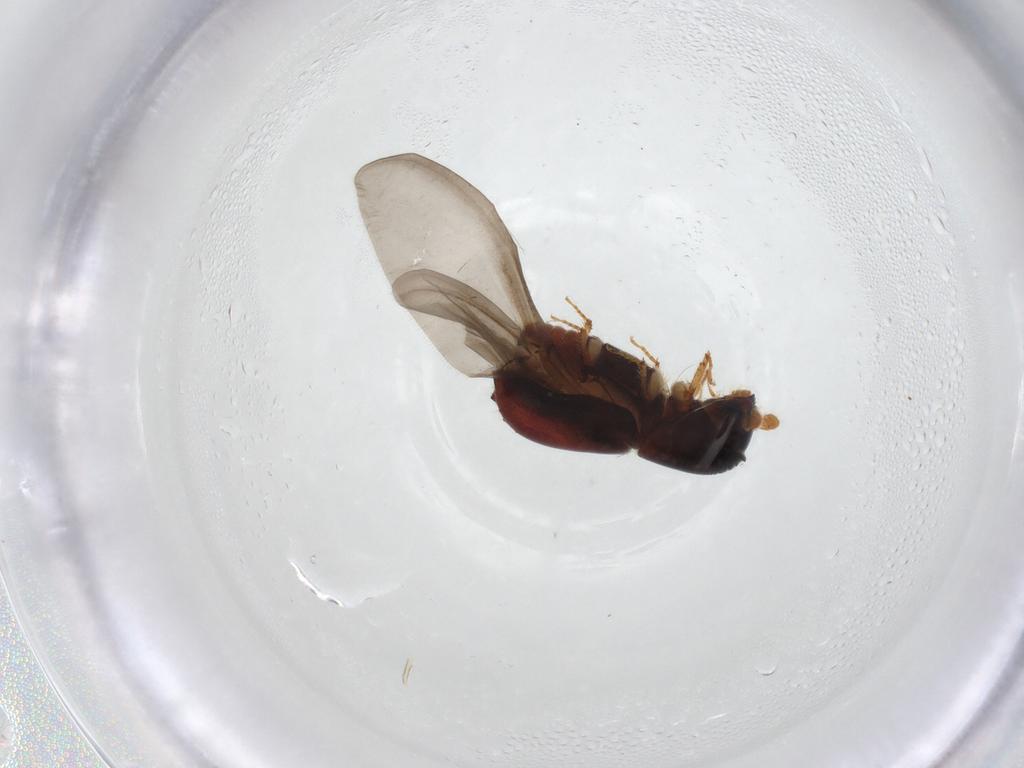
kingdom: Animalia
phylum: Arthropoda
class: Insecta
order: Coleoptera
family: Curculionidae
